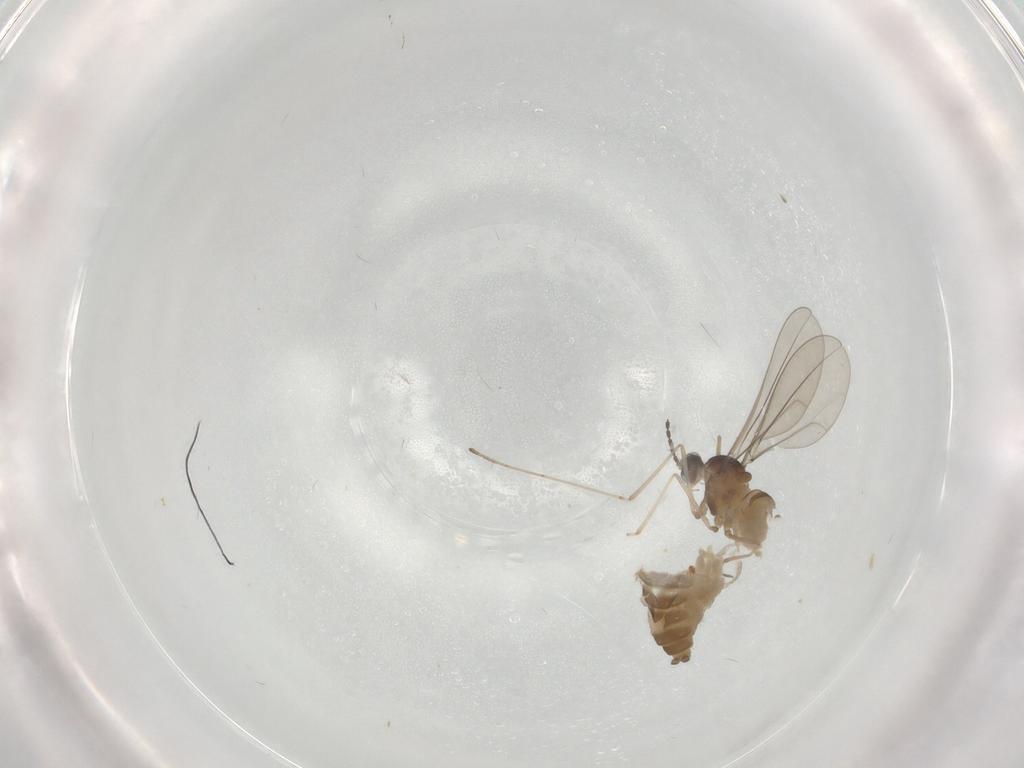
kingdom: Animalia
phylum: Arthropoda
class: Insecta
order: Diptera
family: Cecidomyiidae
